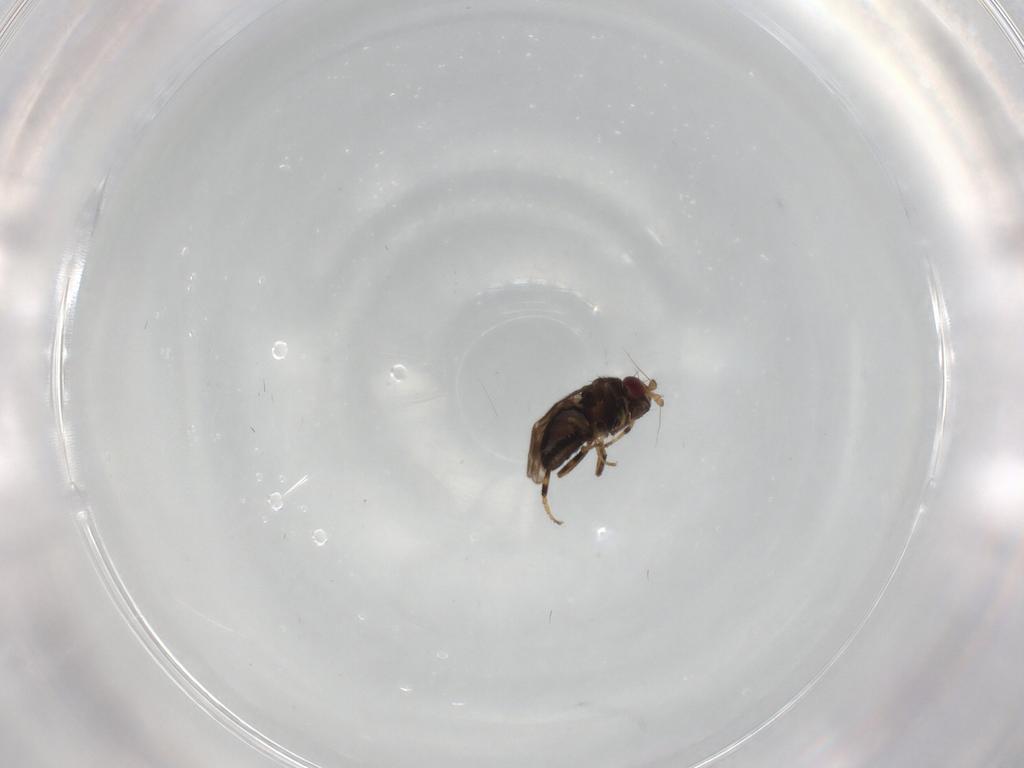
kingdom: Animalia
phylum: Arthropoda
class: Insecta
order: Diptera
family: Sphaeroceridae
